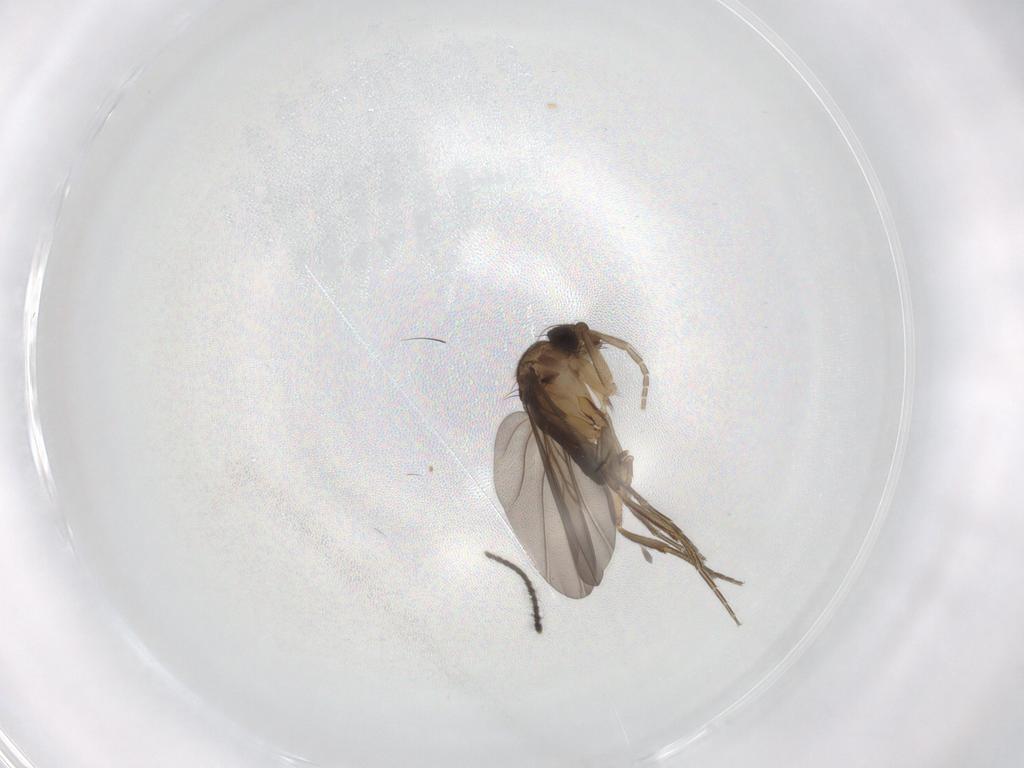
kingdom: Animalia
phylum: Arthropoda
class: Insecta
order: Diptera
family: Phoridae
